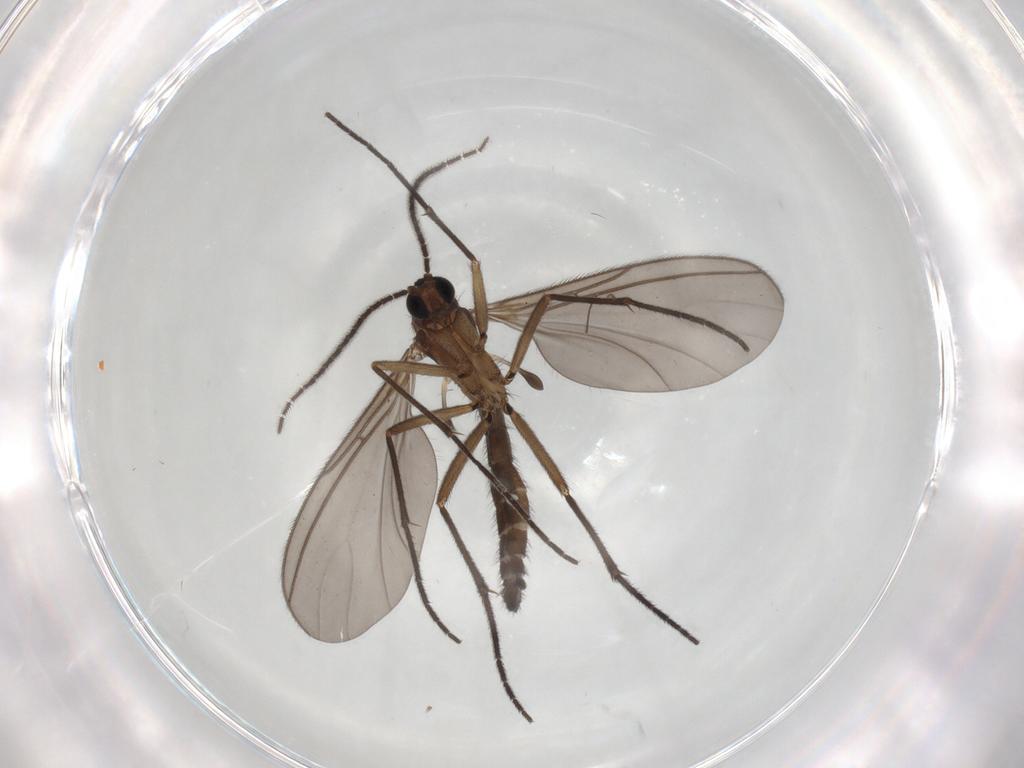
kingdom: Animalia
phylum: Arthropoda
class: Insecta
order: Diptera
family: Sciaridae
